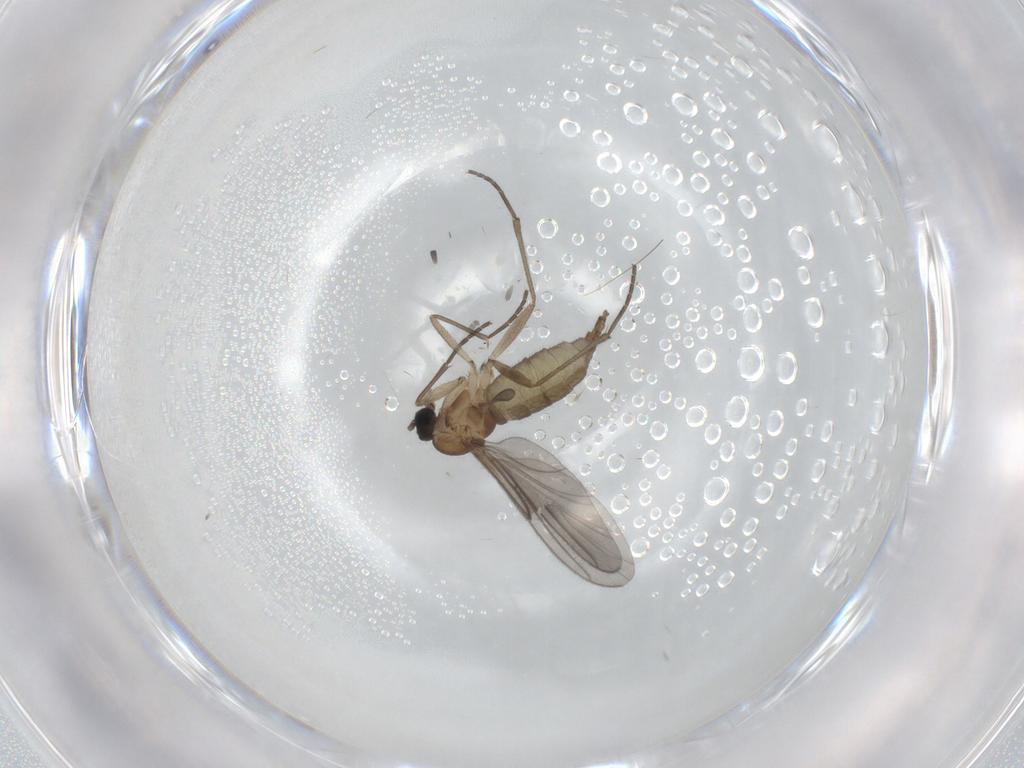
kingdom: Animalia
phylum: Arthropoda
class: Insecta
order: Diptera
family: Sciaridae
